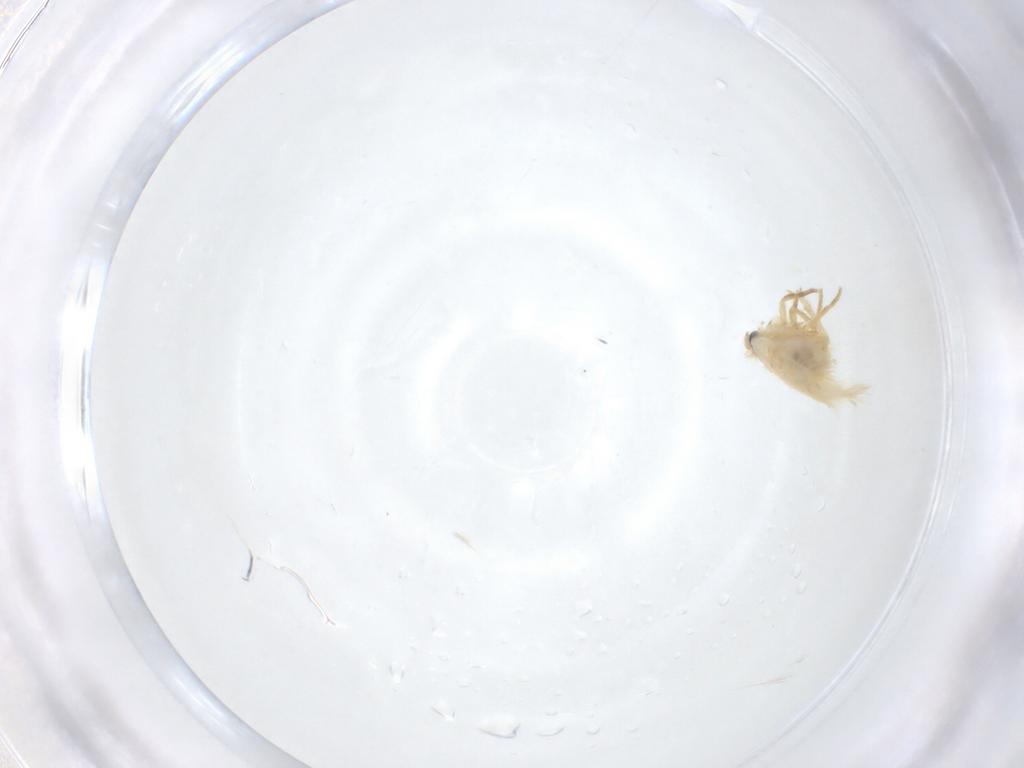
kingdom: Animalia
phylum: Arthropoda
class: Insecta
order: Lepidoptera
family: Nepticulidae
